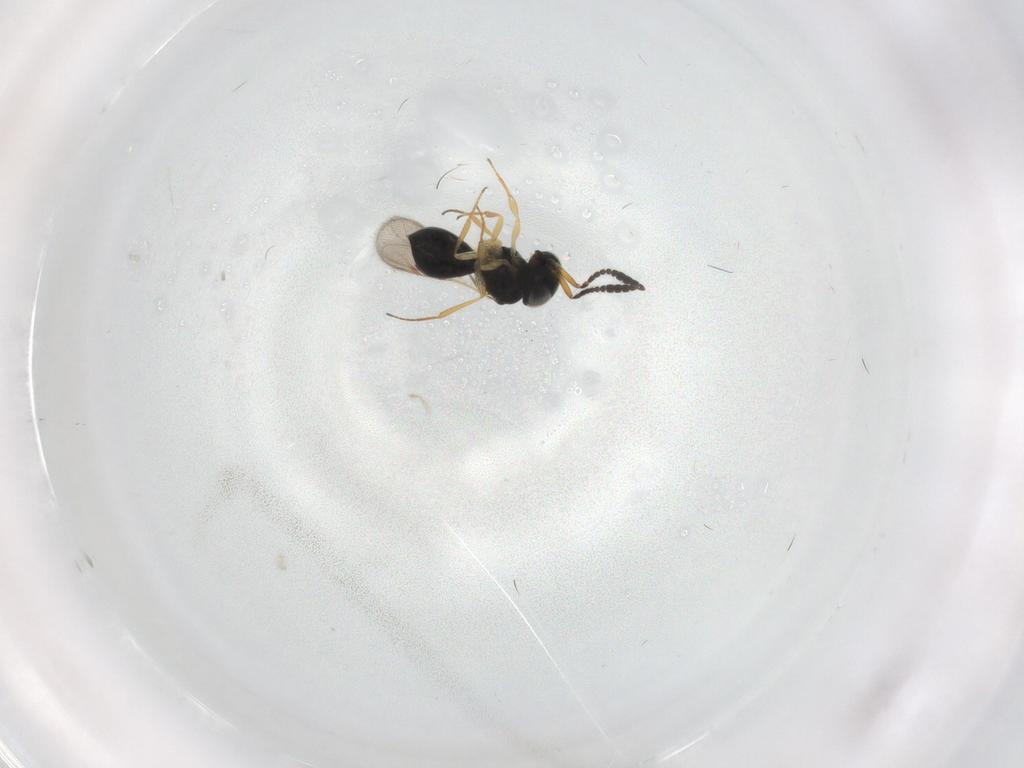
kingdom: Animalia
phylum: Arthropoda
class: Insecta
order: Hymenoptera
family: Scelionidae
